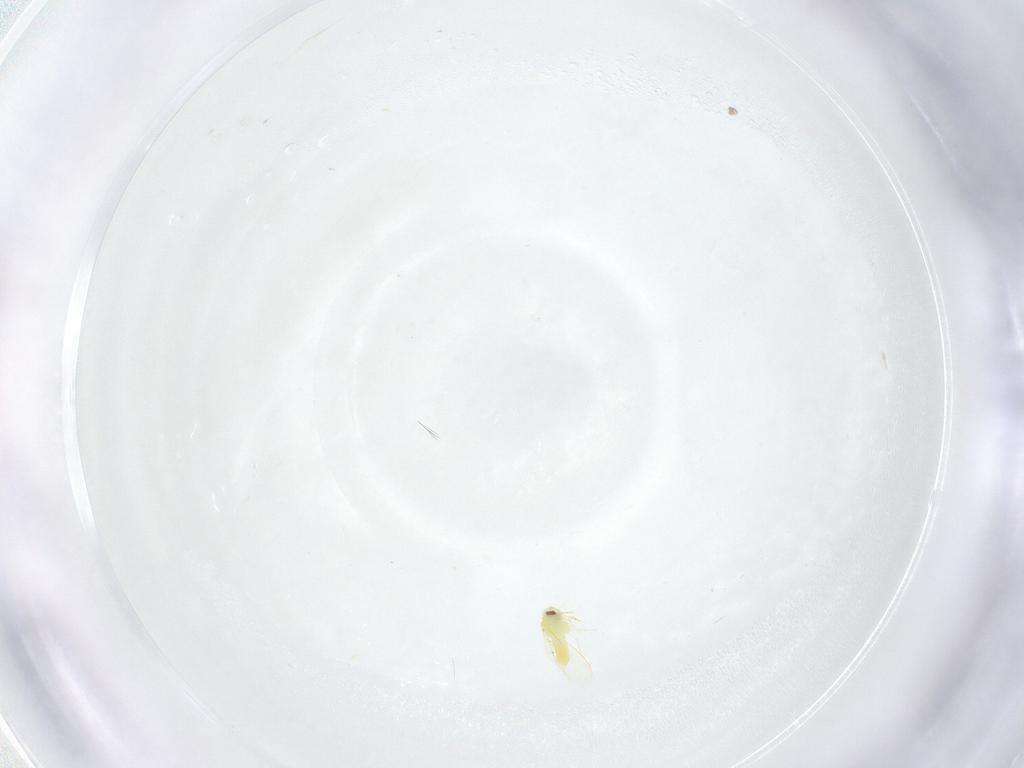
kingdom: Animalia
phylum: Arthropoda
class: Insecta
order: Hemiptera
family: Aleyrodidae
